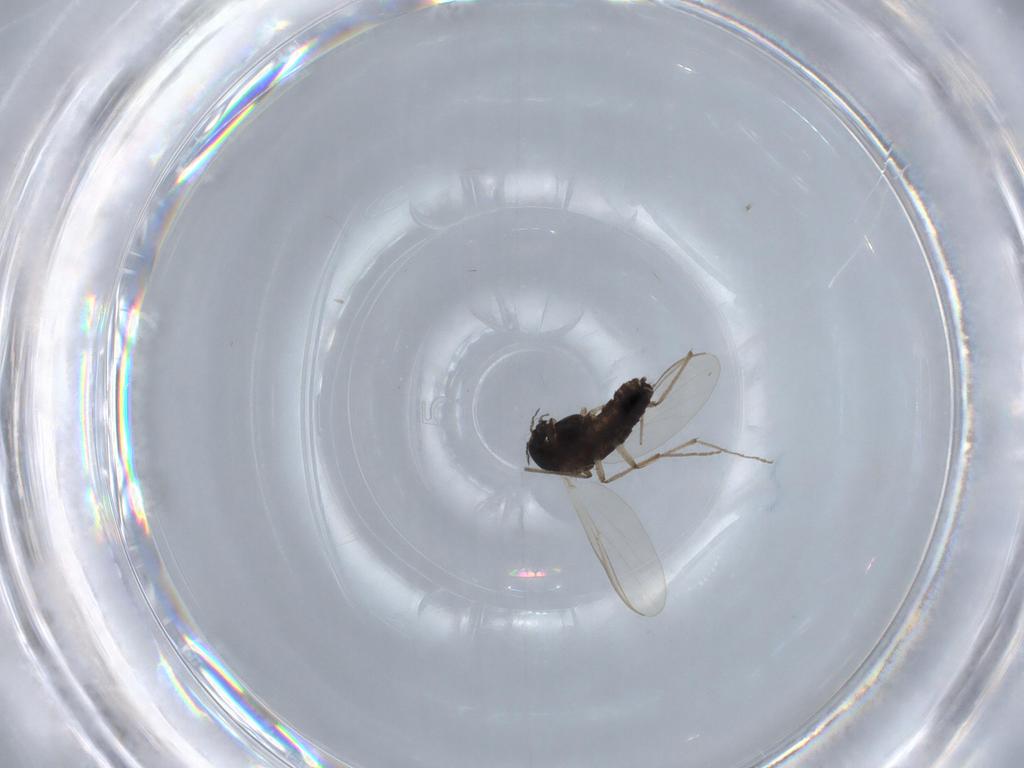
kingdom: Animalia
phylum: Arthropoda
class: Insecta
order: Diptera
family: Chironomidae
